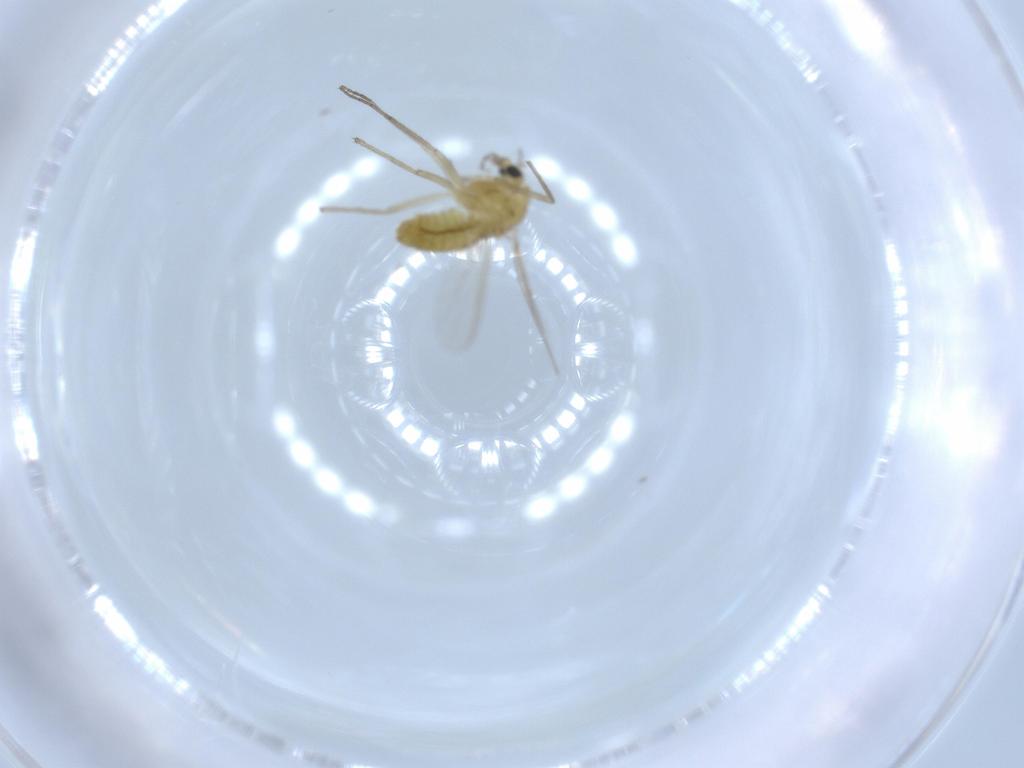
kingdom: Animalia
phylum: Arthropoda
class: Insecta
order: Diptera
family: Chironomidae
